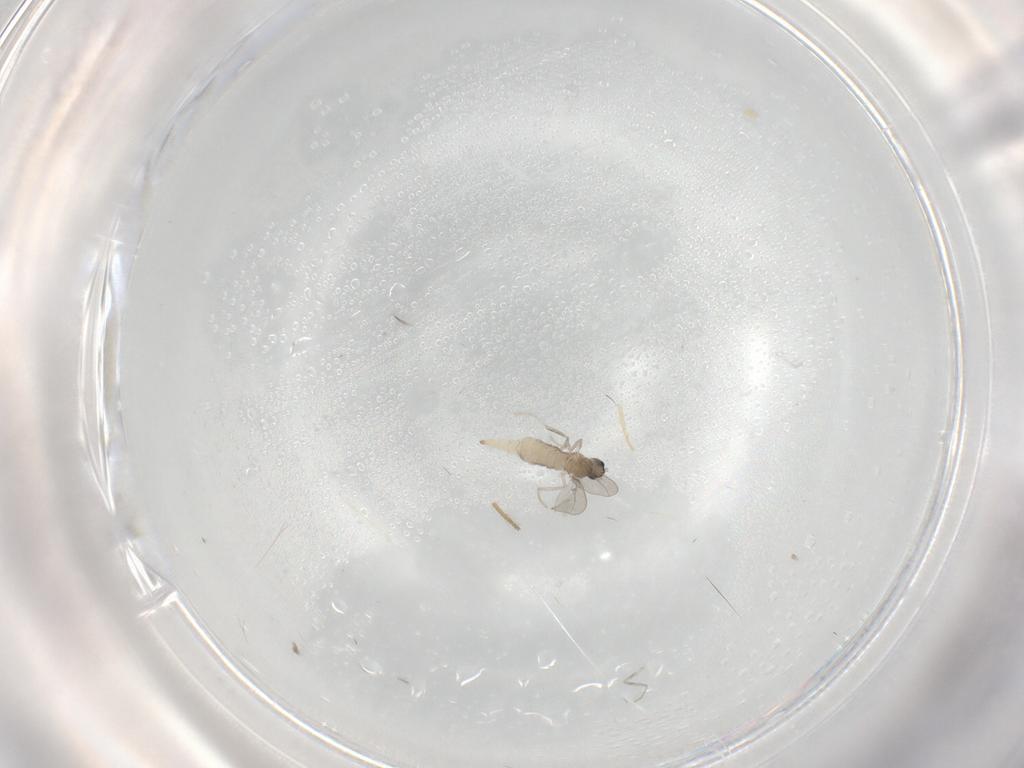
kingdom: Animalia
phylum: Arthropoda
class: Insecta
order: Diptera
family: Cecidomyiidae
